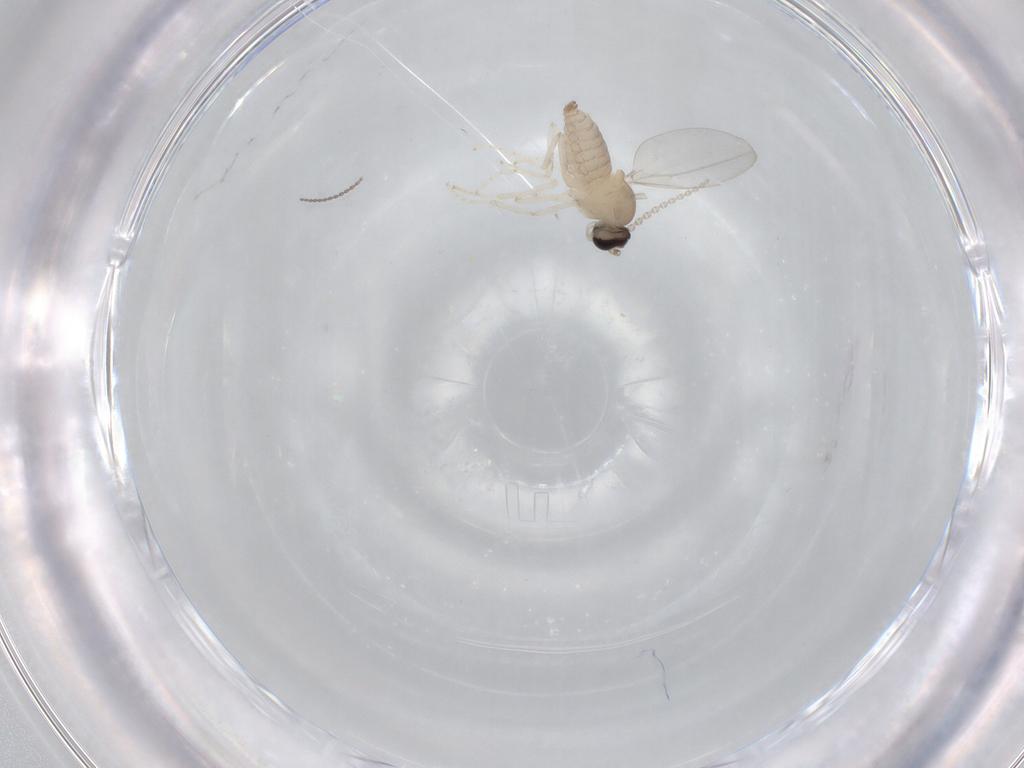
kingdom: Animalia
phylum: Arthropoda
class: Insecta
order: Diptera
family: Cecidomyiidae
